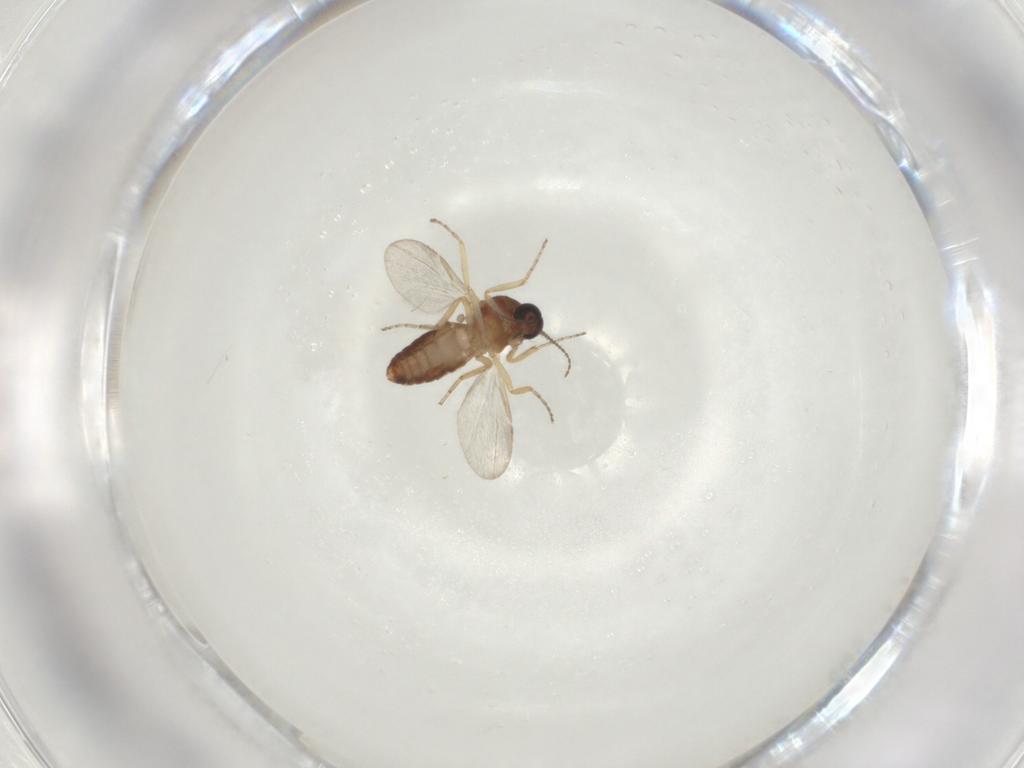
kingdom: Animalia
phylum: Arthropoda
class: Insecta
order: Diptera
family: Ceratopogonidae
